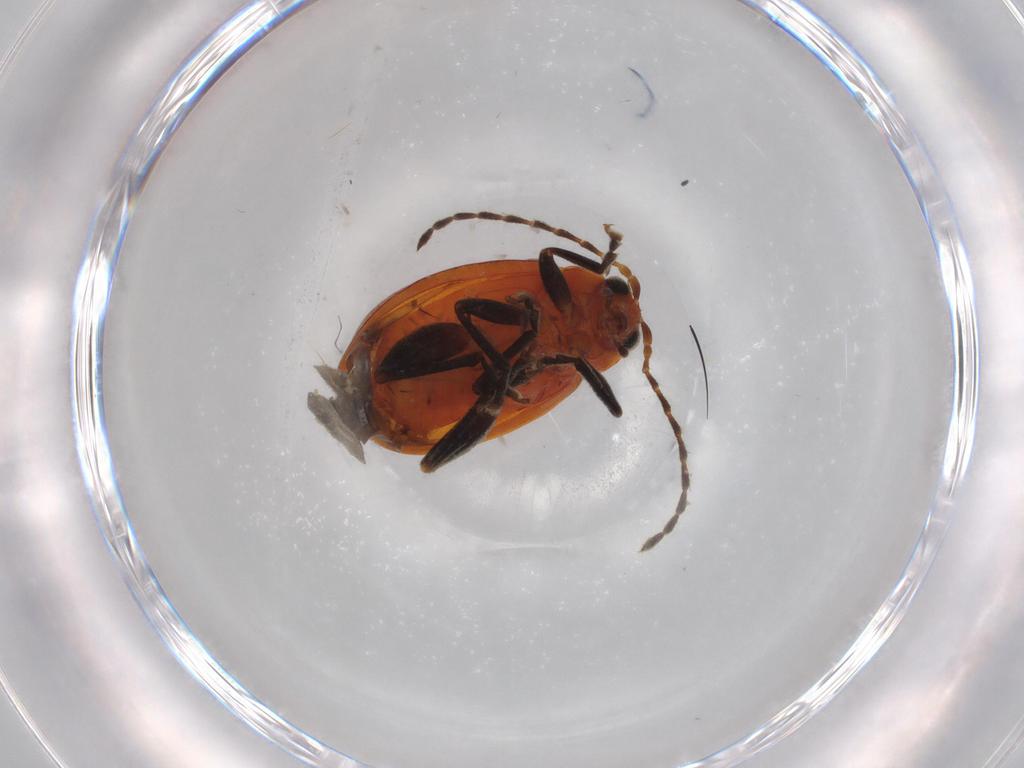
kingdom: Animalia
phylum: Arthropoda
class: Insecta
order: Coleoptera
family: Chrysomelidae
